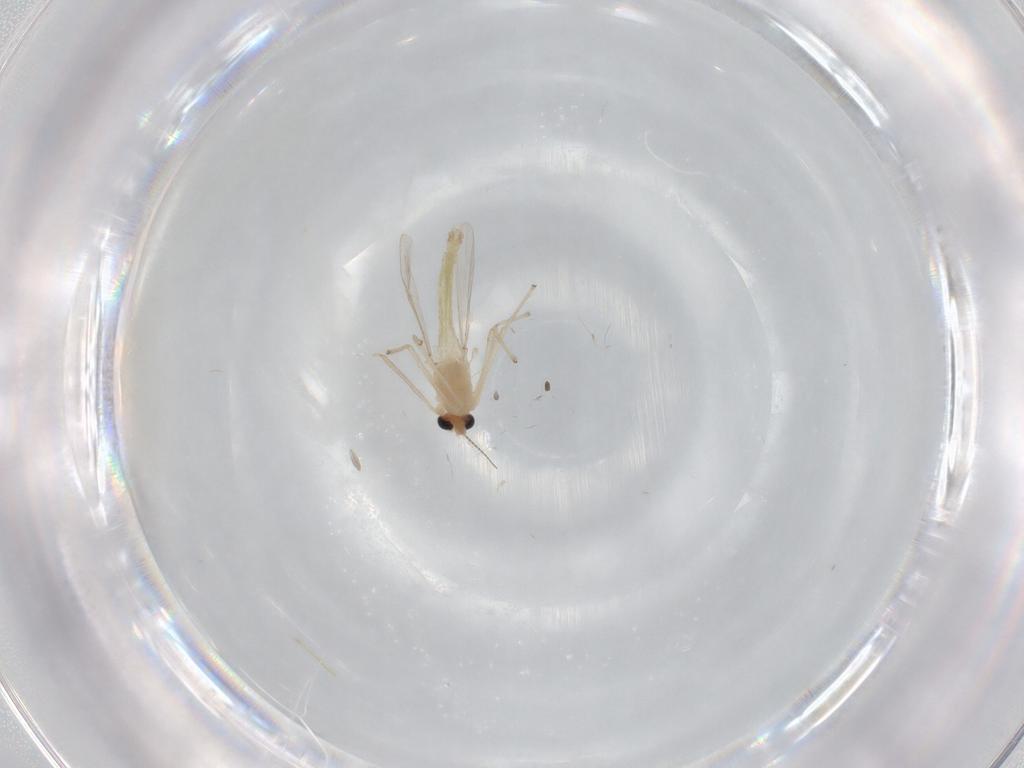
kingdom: Animalia
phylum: Arthropoda
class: Insecta
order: Diptera
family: Chironomidae
